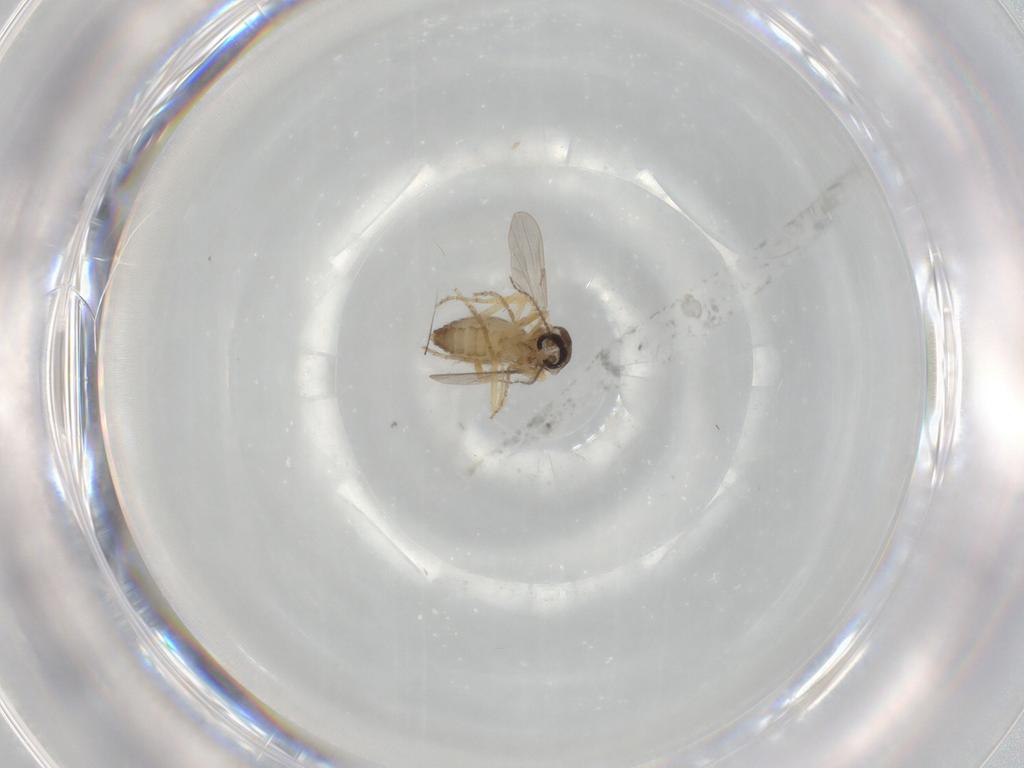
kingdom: Animalia
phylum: Arthropoda
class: Insecta
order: Diptera
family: Ceratopogonidae
